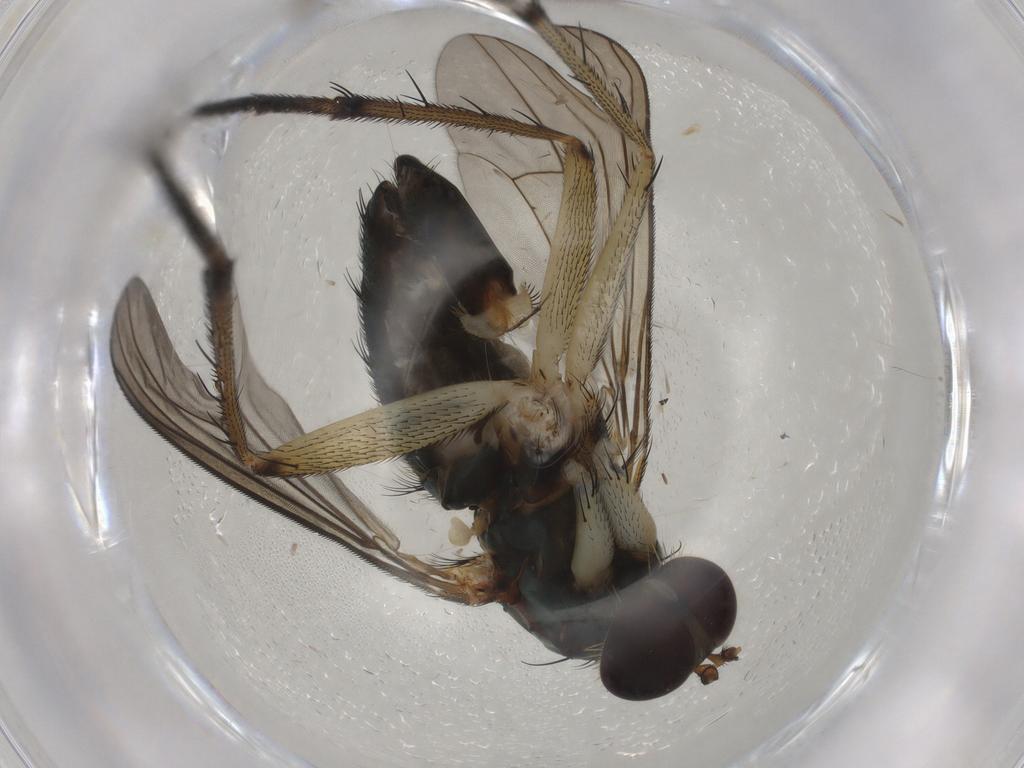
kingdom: Animalia
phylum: Arthropoda
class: Insecta
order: Diptera
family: Dolichopodidae
